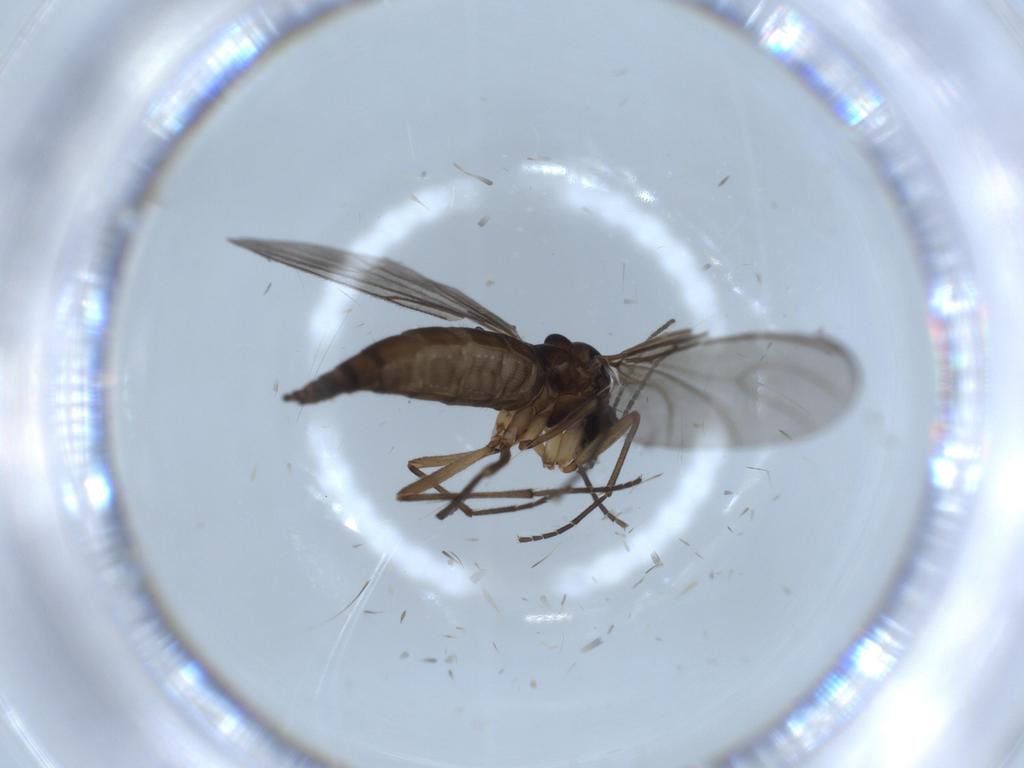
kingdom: Animalia
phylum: Arthropoda
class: Insecta
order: Diptera
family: Sciaridae
